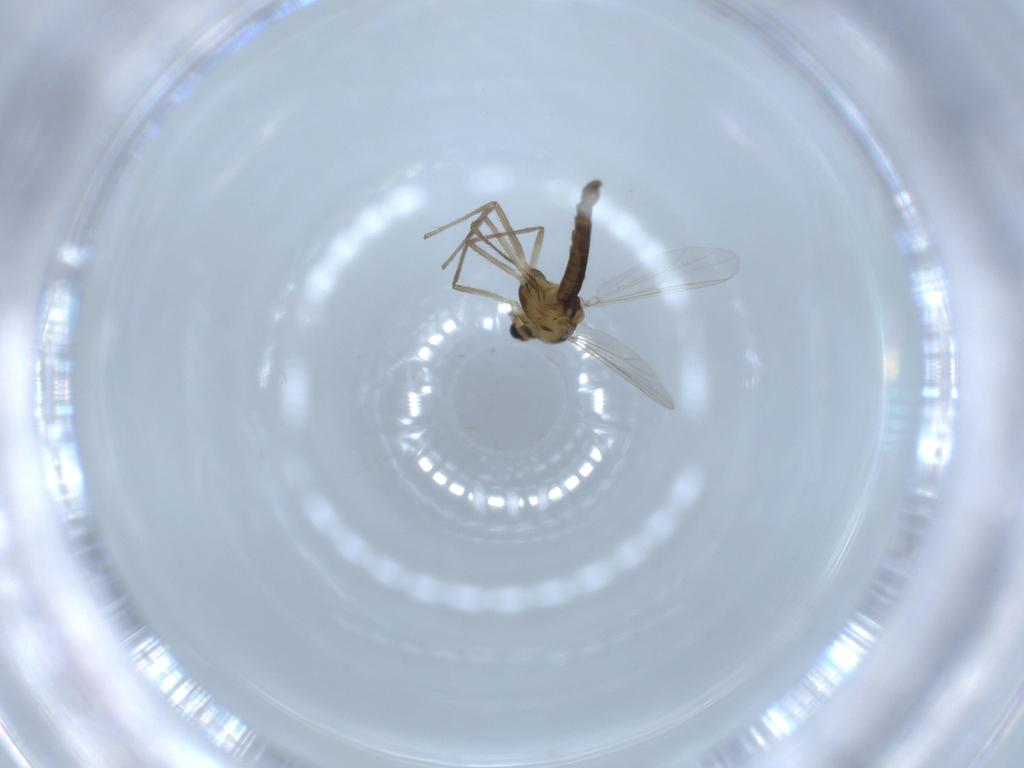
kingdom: Animalia
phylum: Arthropoda
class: Insecta
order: Diptera
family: Chironomidae
